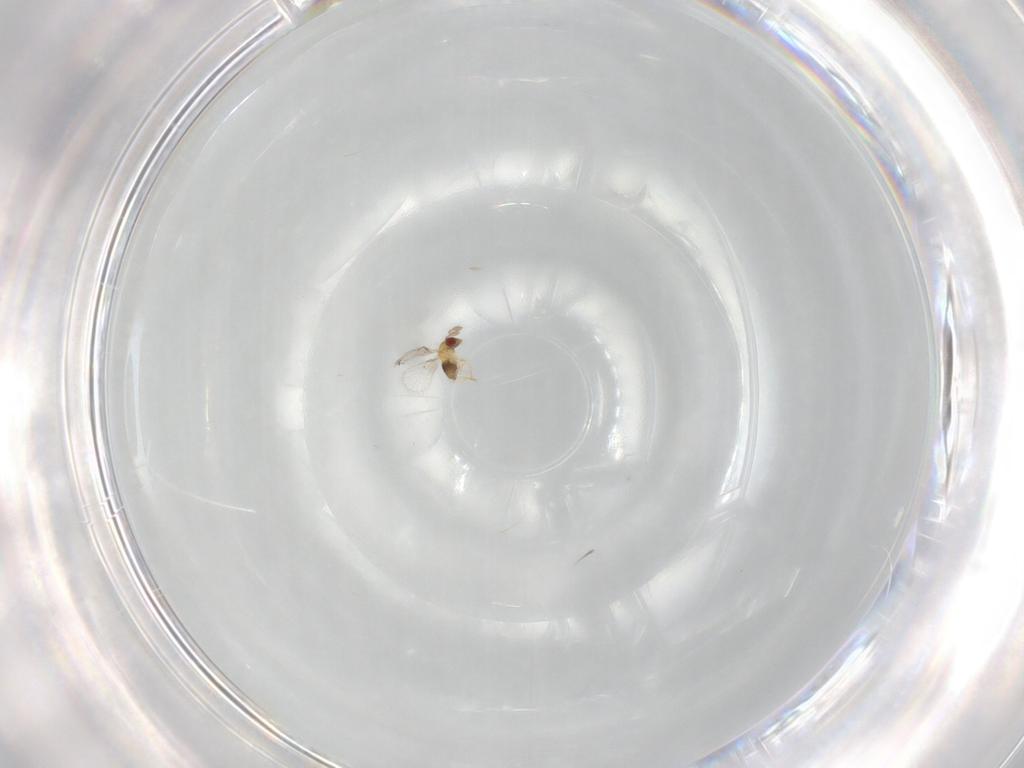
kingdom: Animalia
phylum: Arthropoda
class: Insecta
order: Hymenoptera
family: Trichogrammatidae
